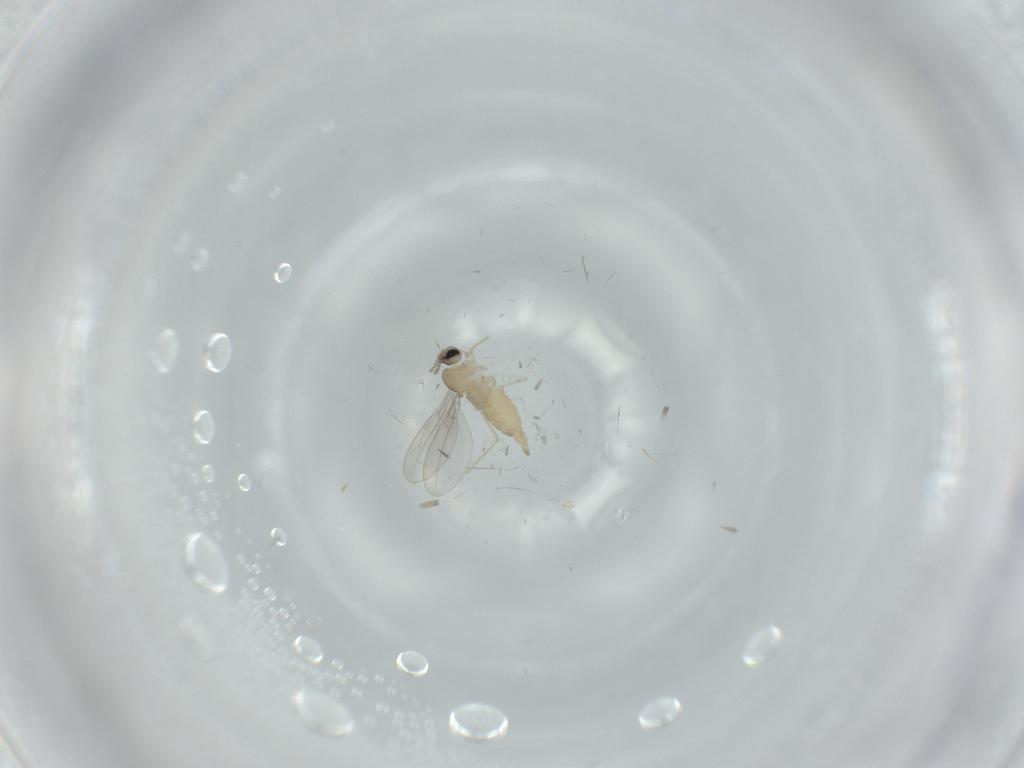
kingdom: Animalia
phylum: Arthropoda
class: Insecta
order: Diptera
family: Cecidomyiidae
